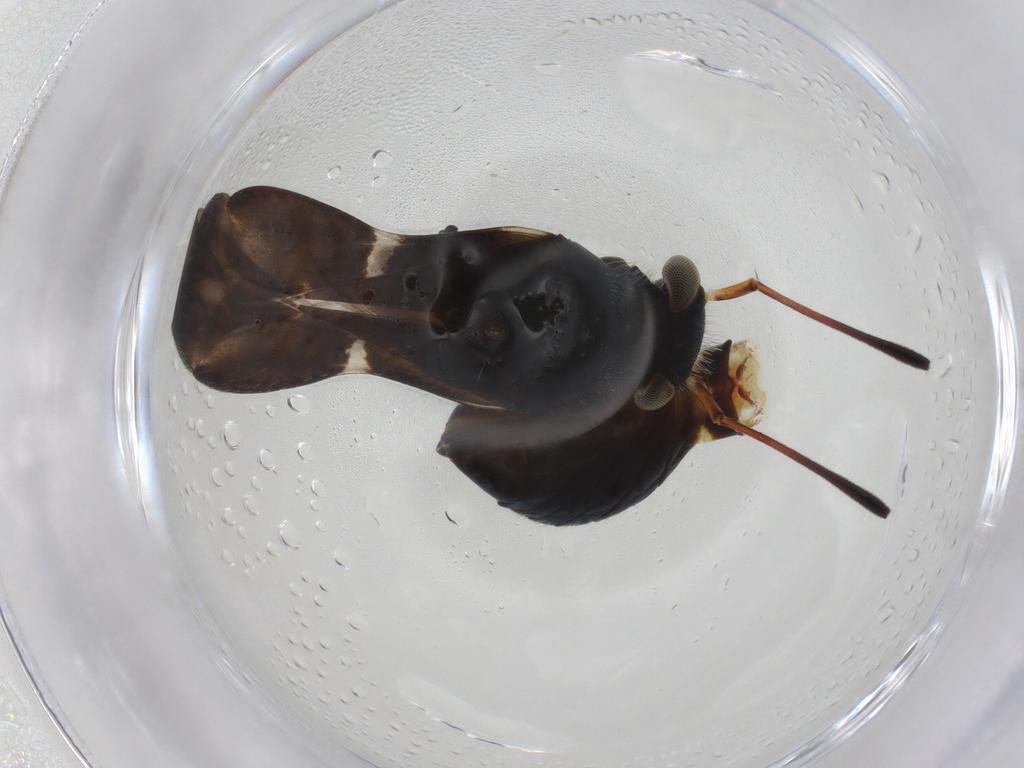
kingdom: Animalia
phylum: Arthropoda
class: Insecta
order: Hemiptera
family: Miridae
